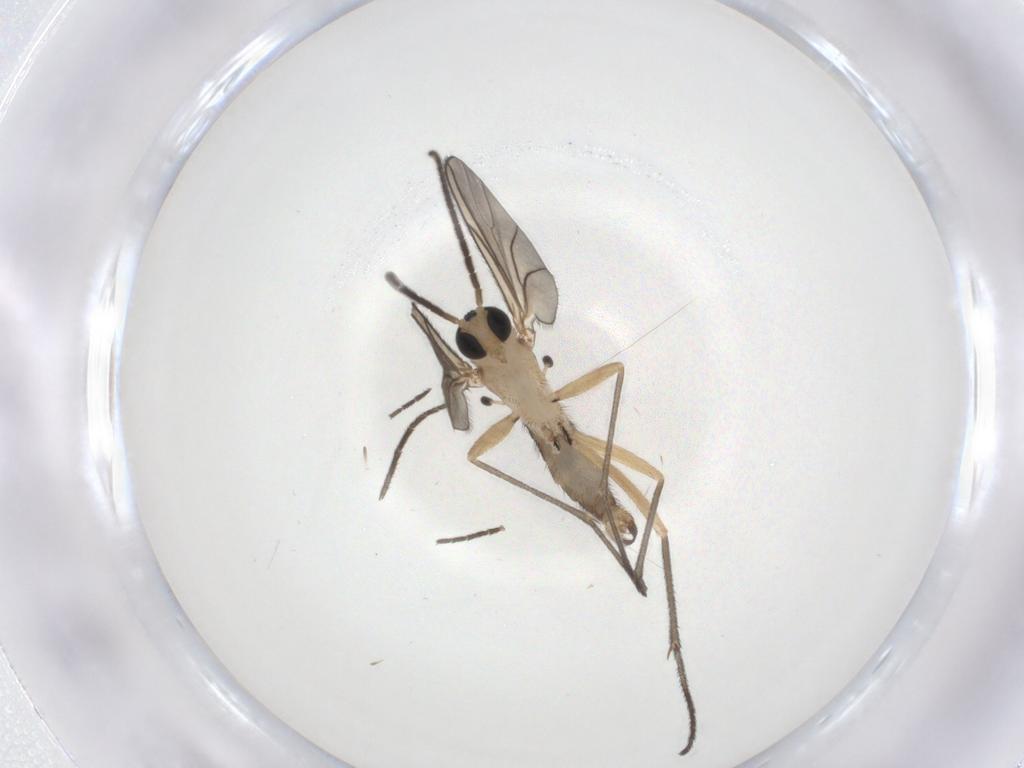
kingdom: Animalia
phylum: Arthropoda
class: Insecta
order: Diptera
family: Sciaridae
